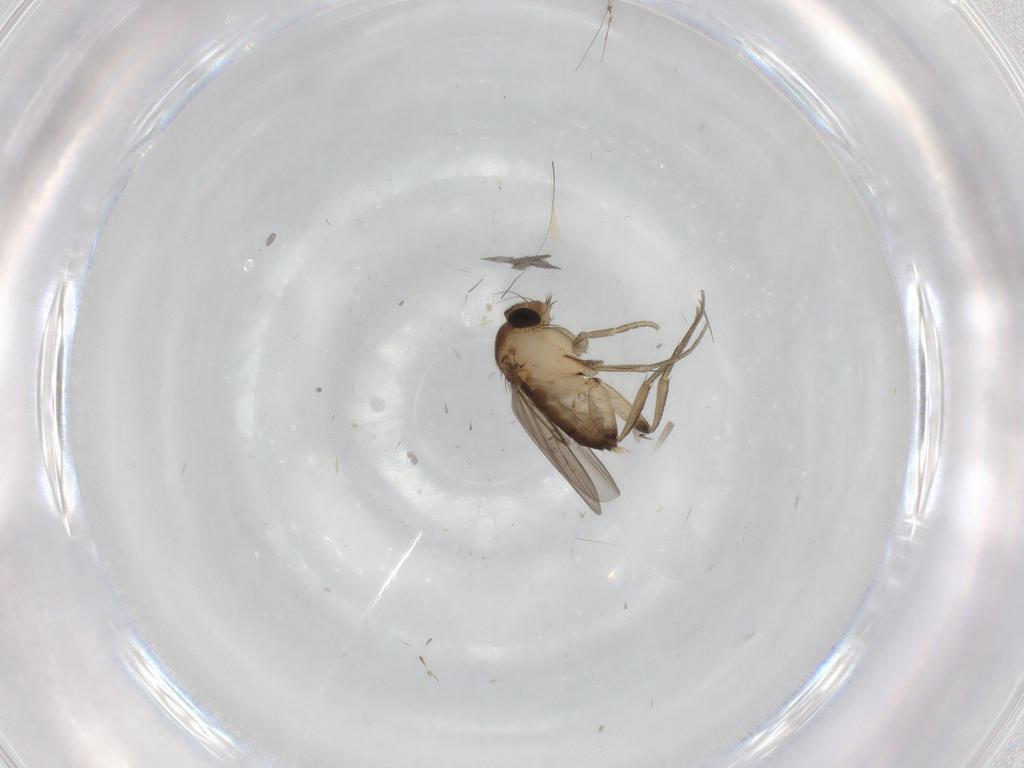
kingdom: Animalia
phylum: Arthropoda
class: Insecta
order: Diptera
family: Phoridae
